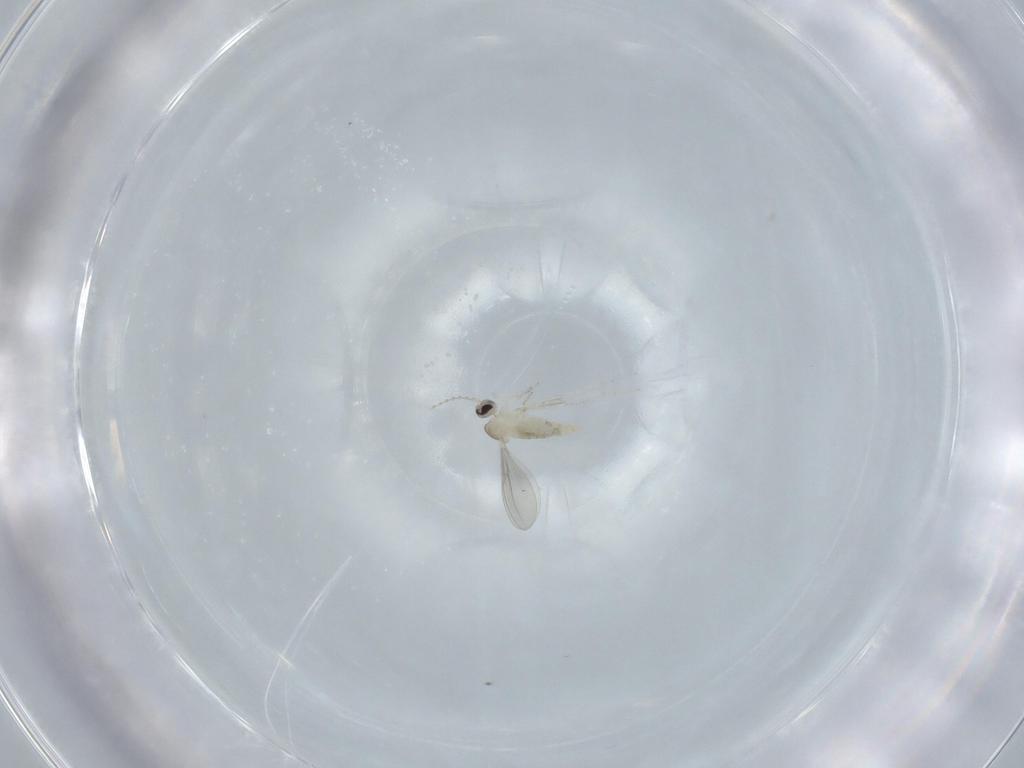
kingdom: Animalia
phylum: Arthropoda
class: Insecta
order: Diptera
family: Cecidomyiidae
